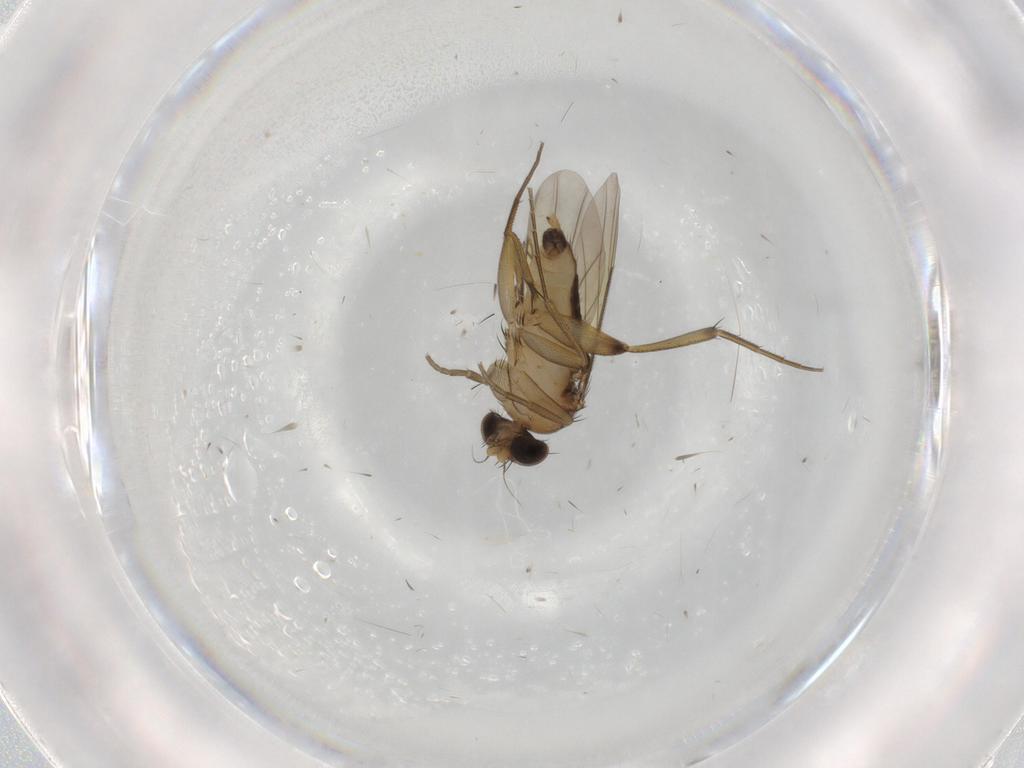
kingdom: Animalia
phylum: Arthropoda
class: Insecta
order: Diptera
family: Phoridae
